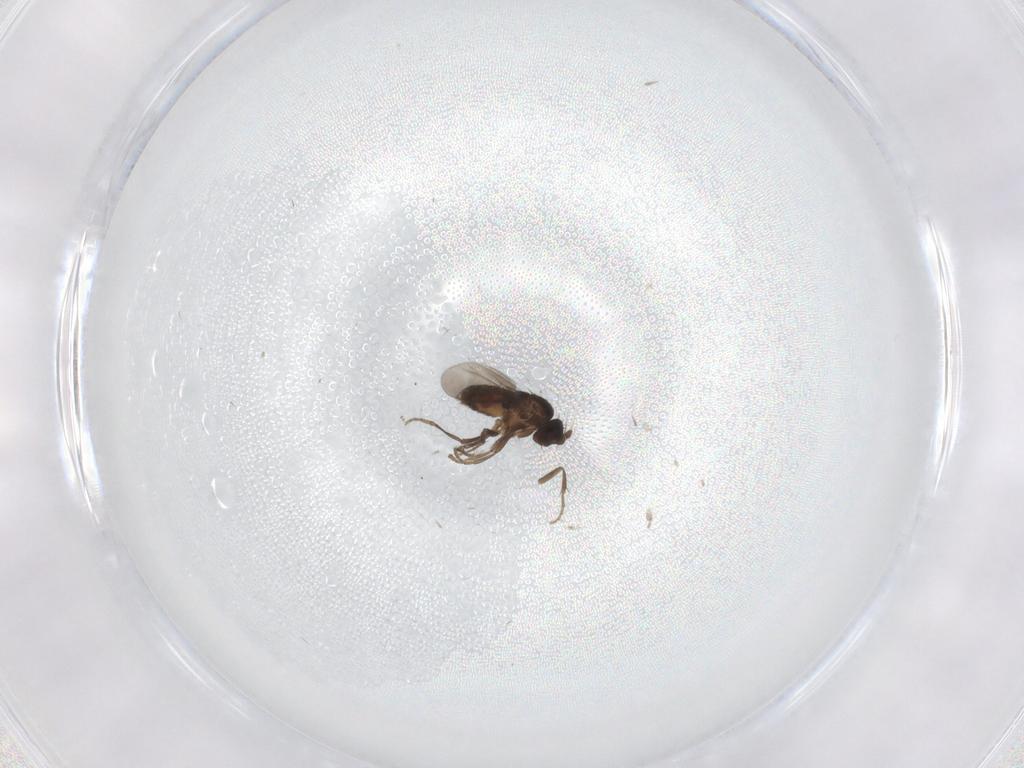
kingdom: Animalia
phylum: Arthropoda
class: Insecta
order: Diptera
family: Sphaeroceridae
